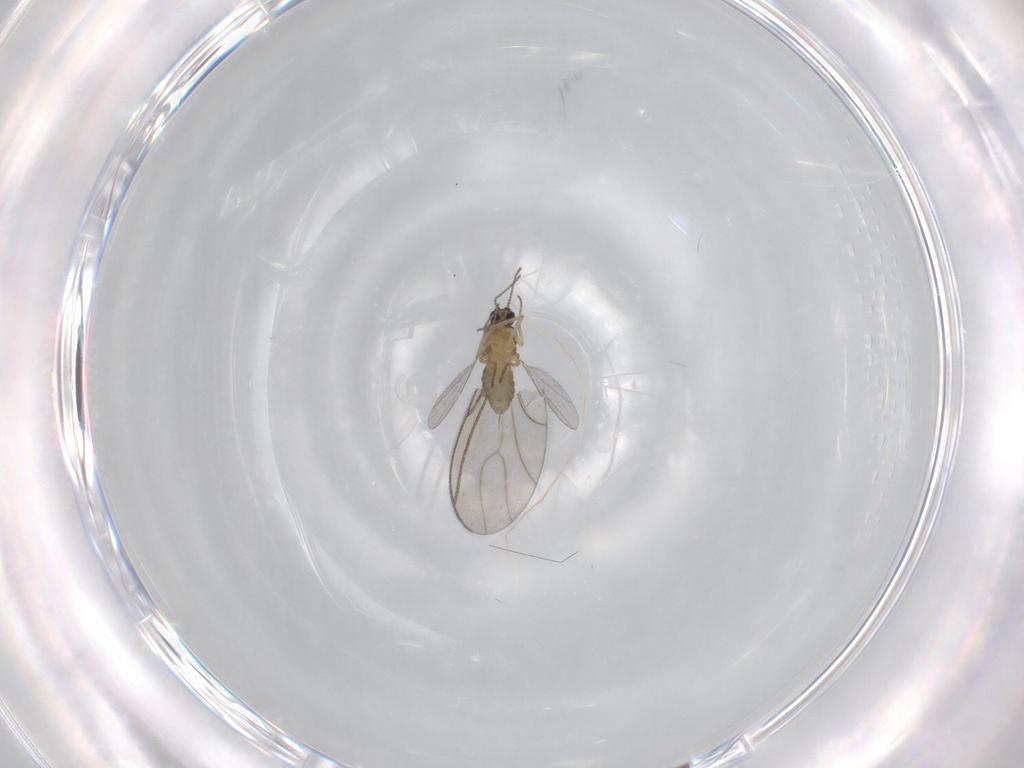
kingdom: Animalia
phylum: Arthropoda
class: Insecta
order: Diptera
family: Ceratopogonidae
